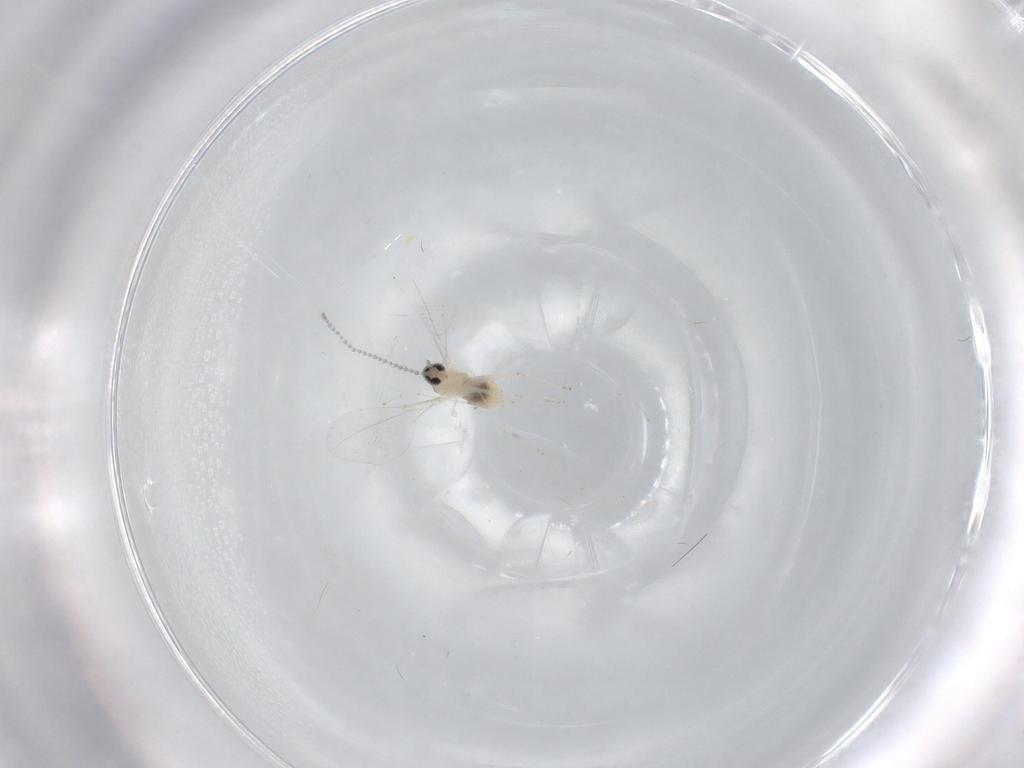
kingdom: Animalia
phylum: Arthropoda
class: Insecta
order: Diptera
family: Cecidomyiidae
